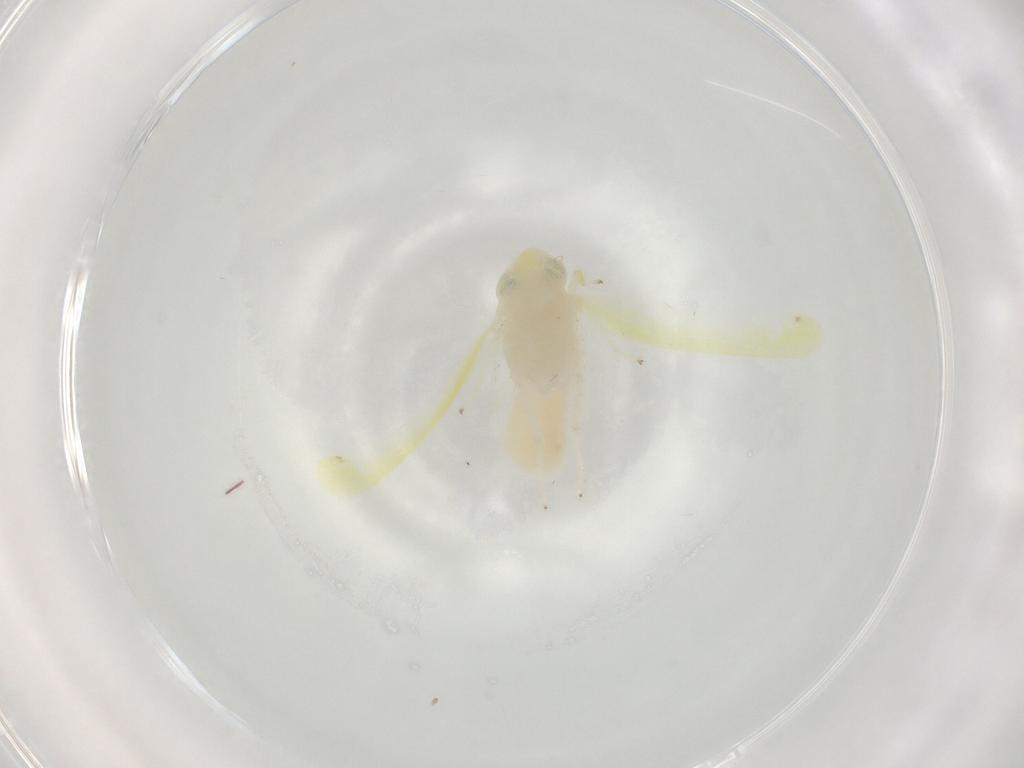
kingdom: Animalia
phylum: Arthropoda
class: Insecta
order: Hemiptera
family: Cicadellidae
